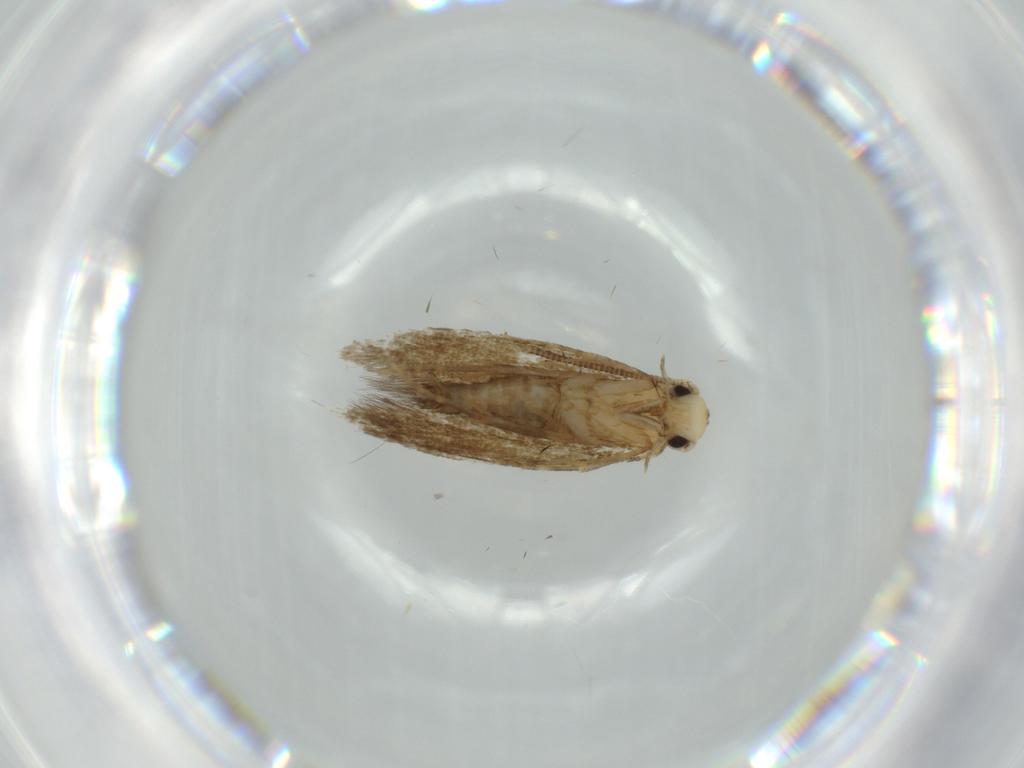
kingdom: Animalia
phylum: Arthropoda
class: Insecta
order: Lepidoptera
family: Tineidae
